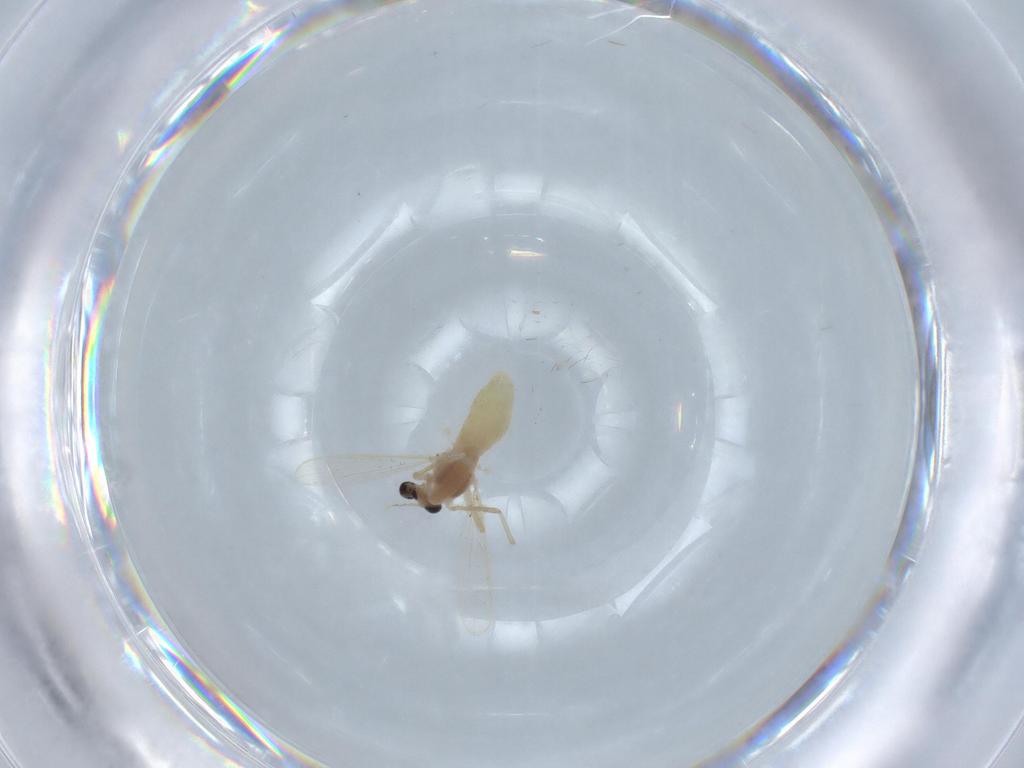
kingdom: Animalia
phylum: Arthropoda
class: Insecta
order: Diptera
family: Chironomidae
